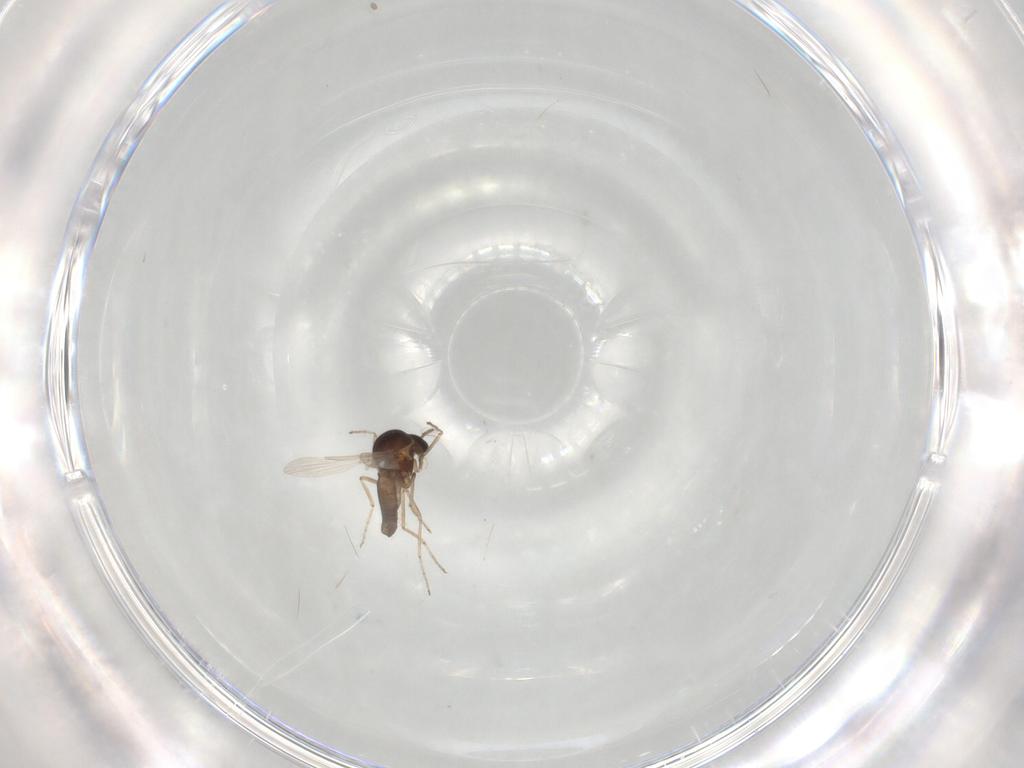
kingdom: Animalia
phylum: Arthropoda
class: Insecta
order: Diptera
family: Ceratopogonidae
